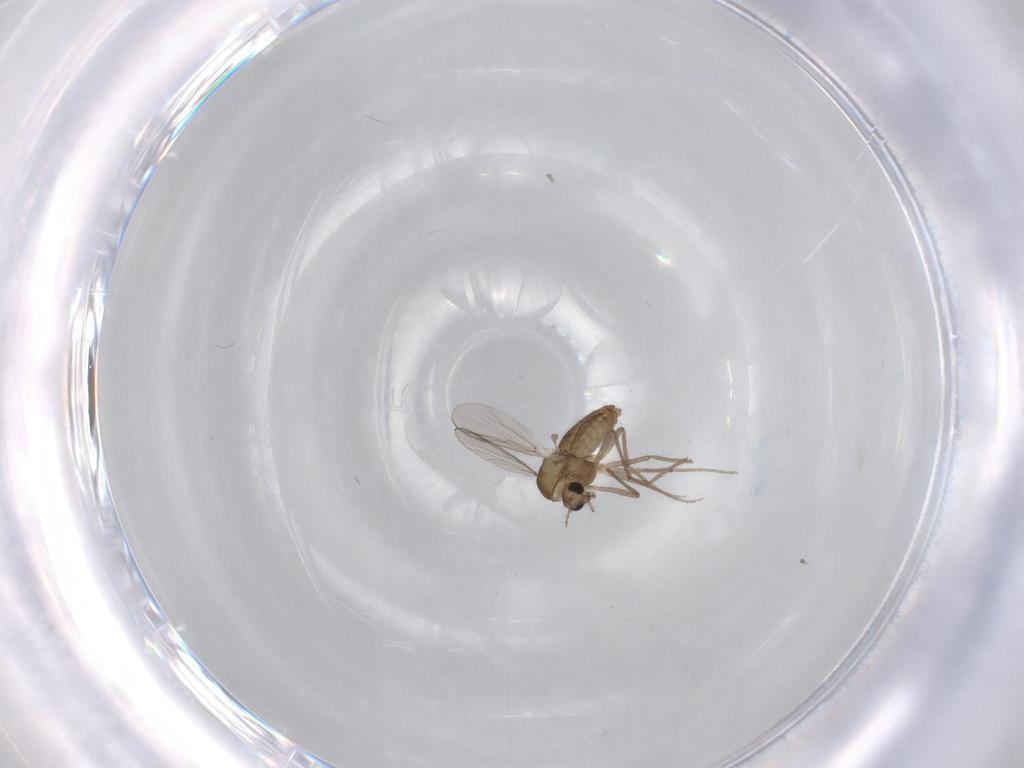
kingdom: Animalia
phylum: Arthropoda
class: Insecta
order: Diptera
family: Chironomidae
